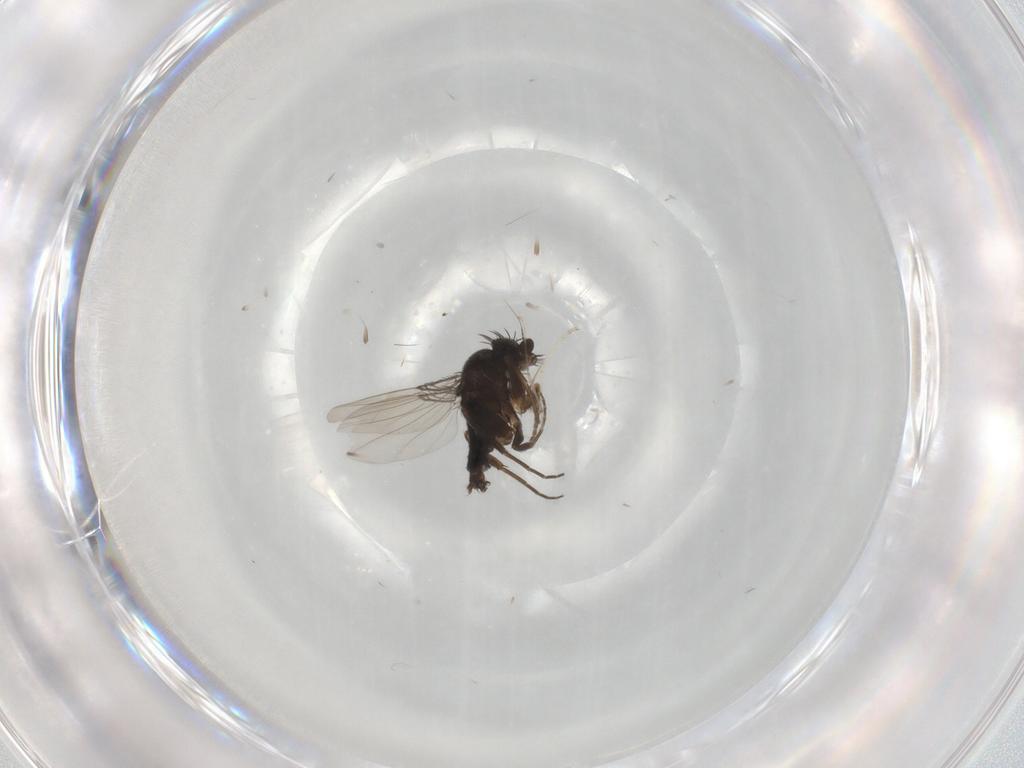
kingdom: Animalia
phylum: Arthropoda
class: Insecta
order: Diptera
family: Phoridae
